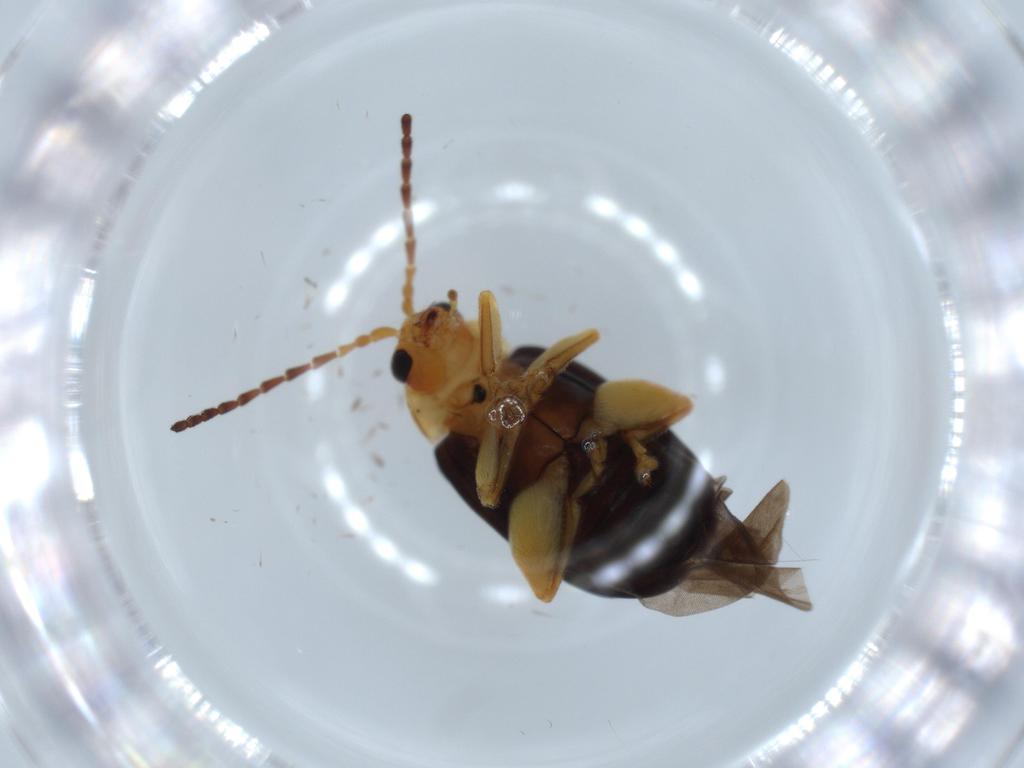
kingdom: Animalia
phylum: Arthropoda
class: Insecta
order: Coleoptera
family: Chrysomelidae
